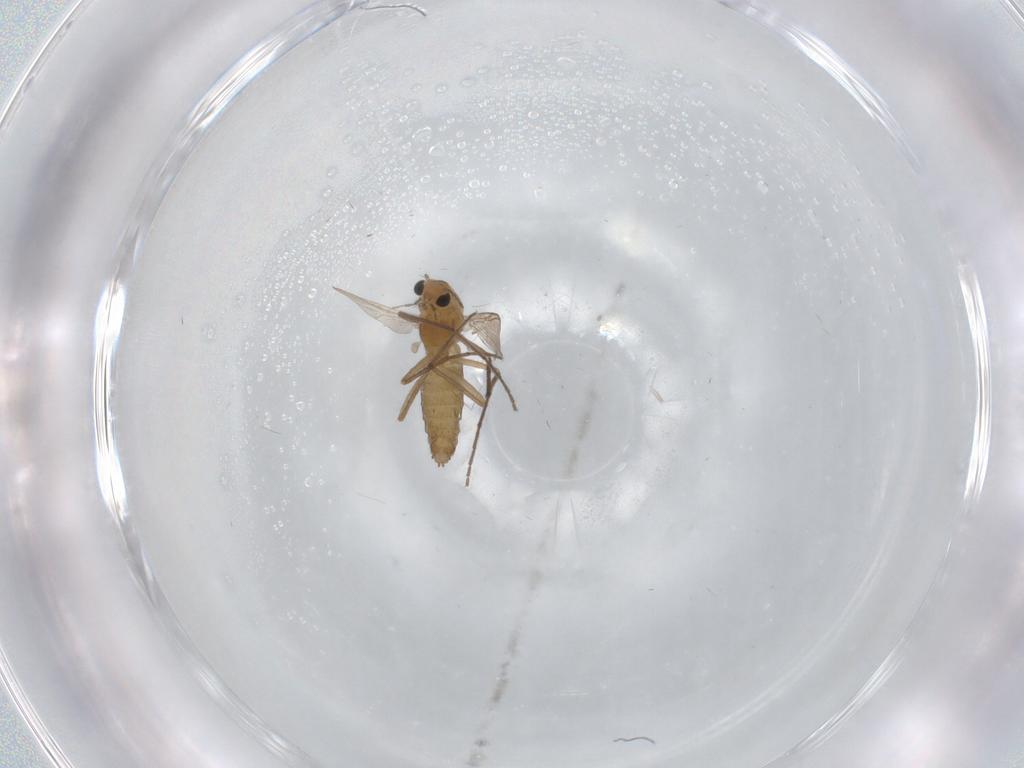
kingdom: Animalia
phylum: Arthropoda
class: Insecta
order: Diptera
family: Chironomidae
